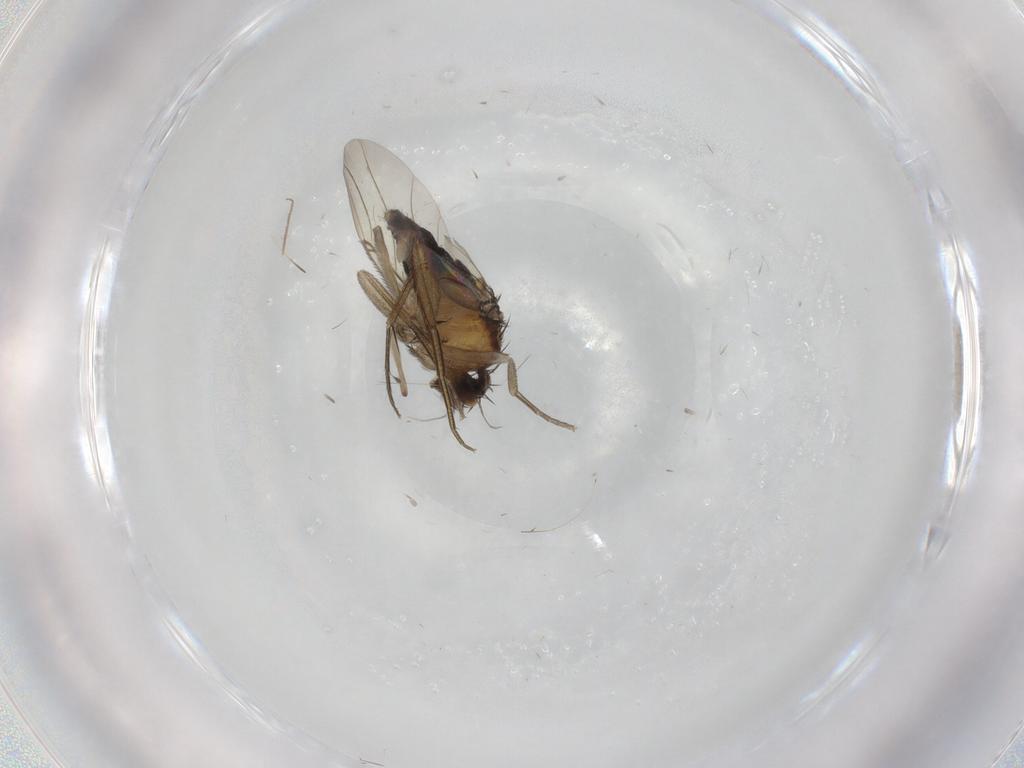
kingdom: Animalia
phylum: Arthropoda
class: Insecta
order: Diptera
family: Phoridae
